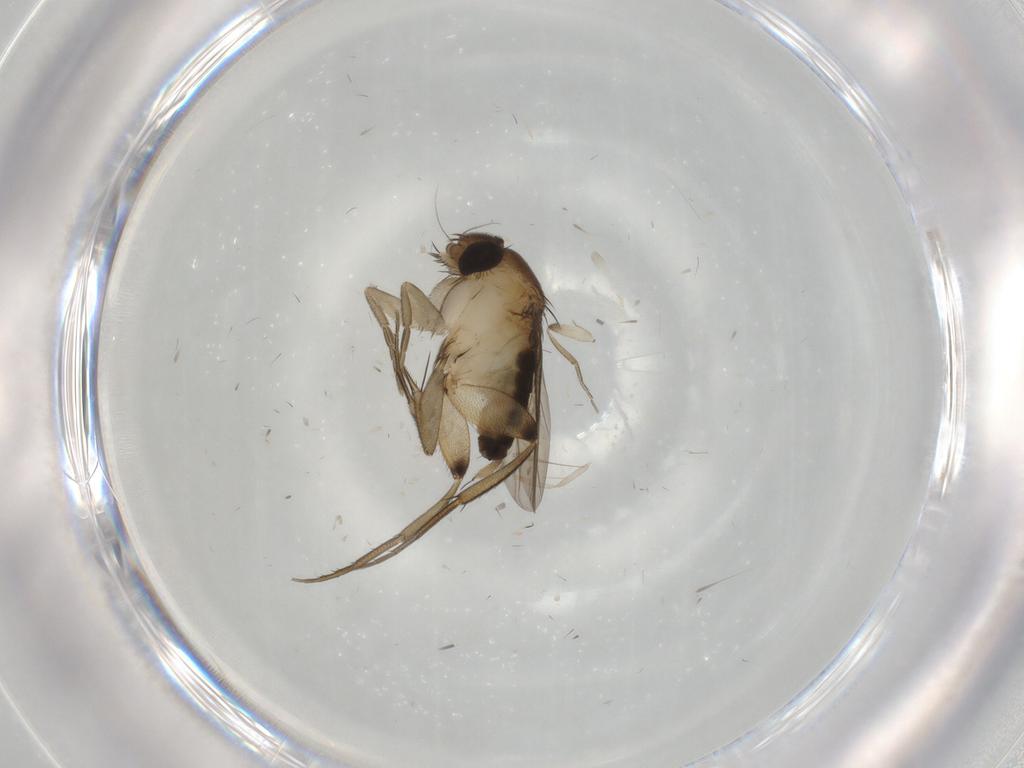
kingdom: Animalia
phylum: Arthropoda
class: Insecta
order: Diptera
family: Phoridae
